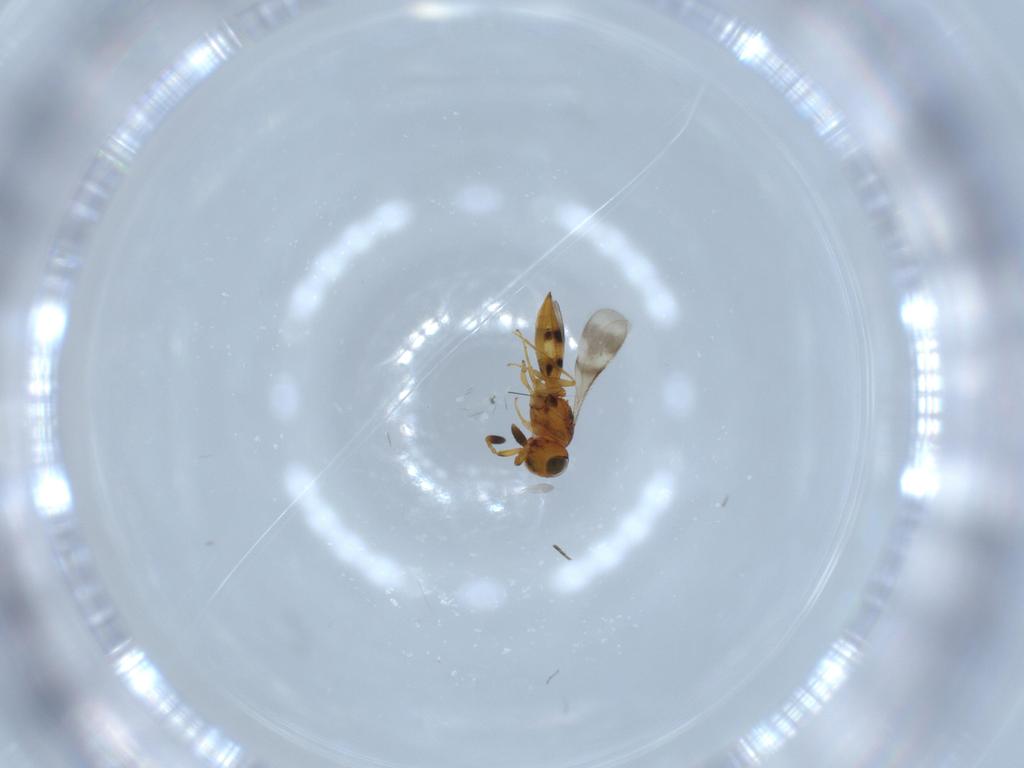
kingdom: Animalia
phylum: Arthropoda
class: Insecta
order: Hymenoptera
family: Scelionidae
